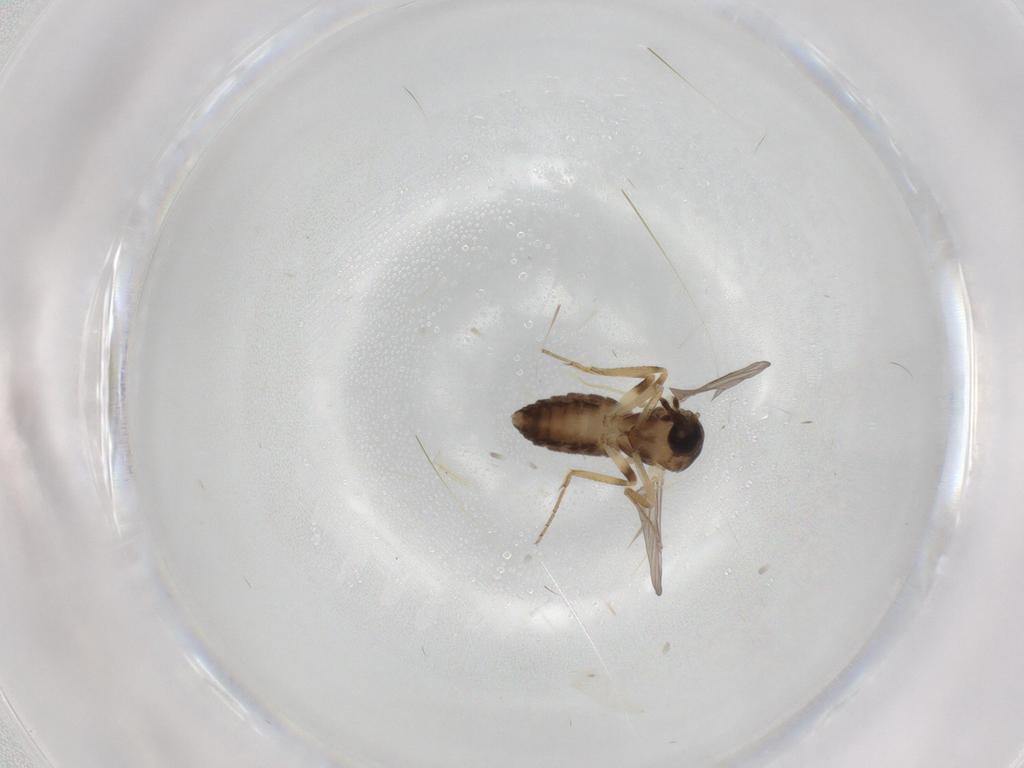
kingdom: Animalia
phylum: Arthropoda
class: Insecta
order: Diptera
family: Ceratopogonidae
